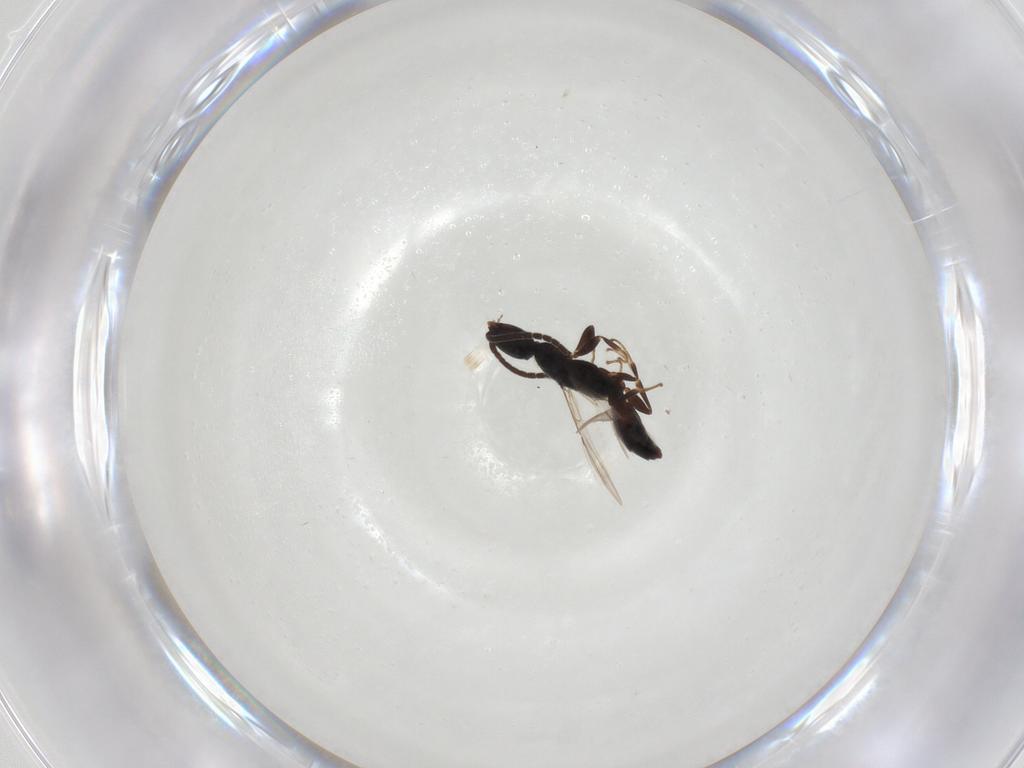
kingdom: Animalia
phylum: Arthropoda
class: Insecta
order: Hymenoptera
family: Bethylidae
